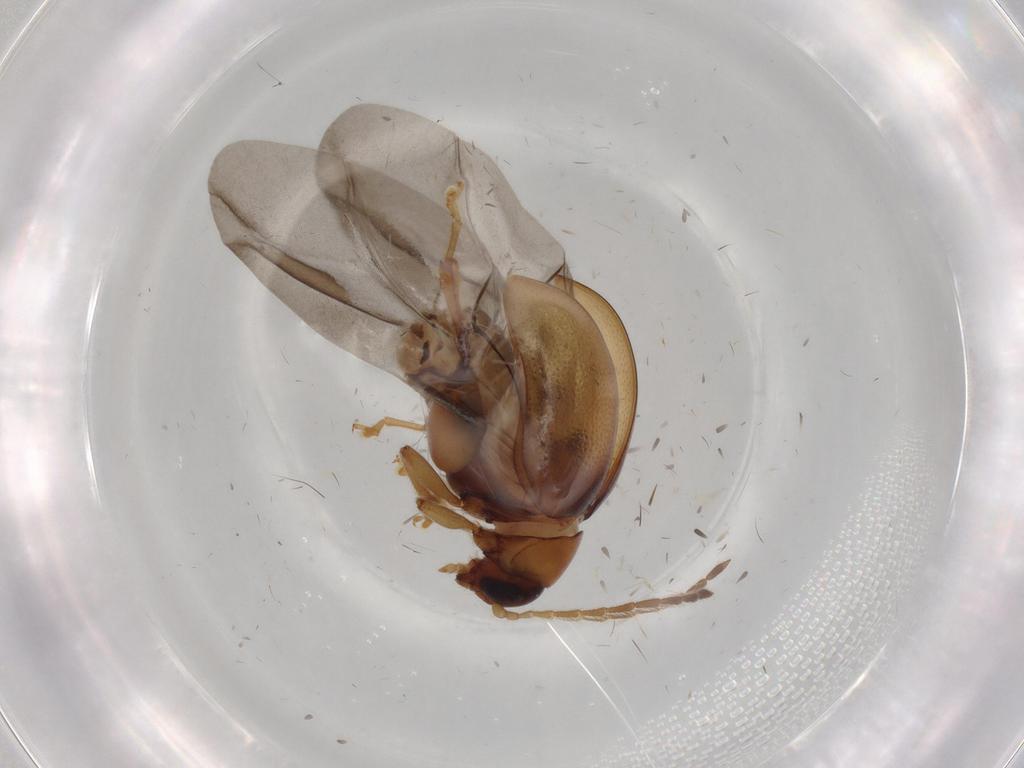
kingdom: Animalia
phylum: Arthropoda
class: Insecta
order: Coleoptera
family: Chrysomelidae
